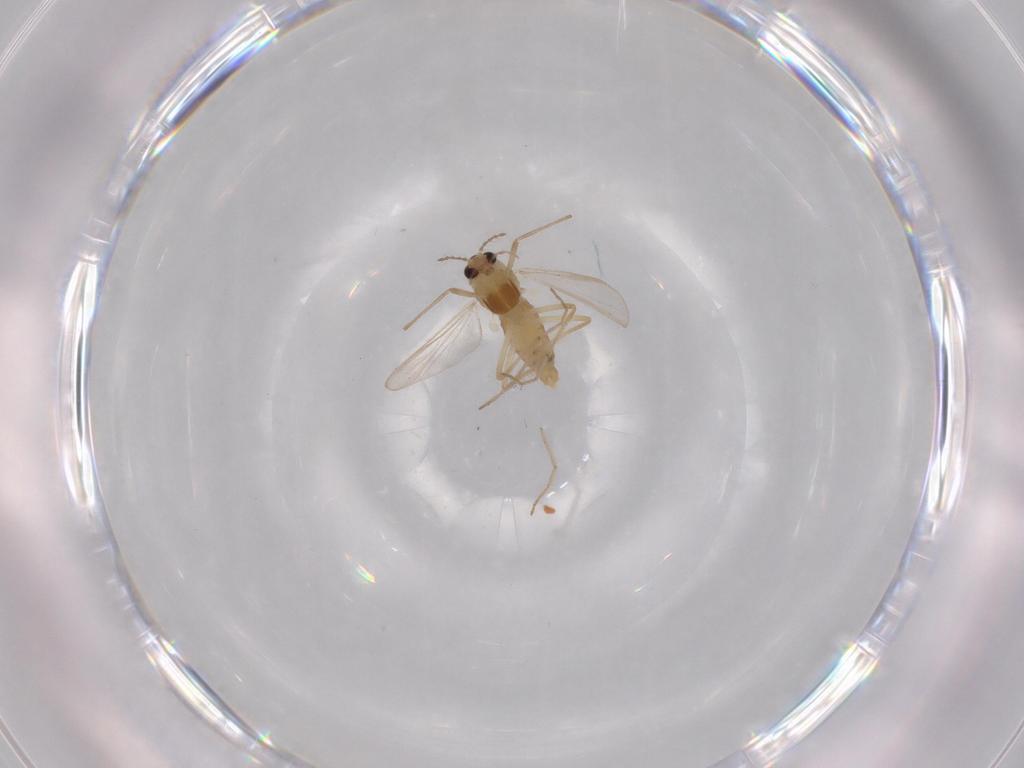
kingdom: Animalia
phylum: Arthropoda
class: Insecta
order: Diptera
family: Chironomidae
